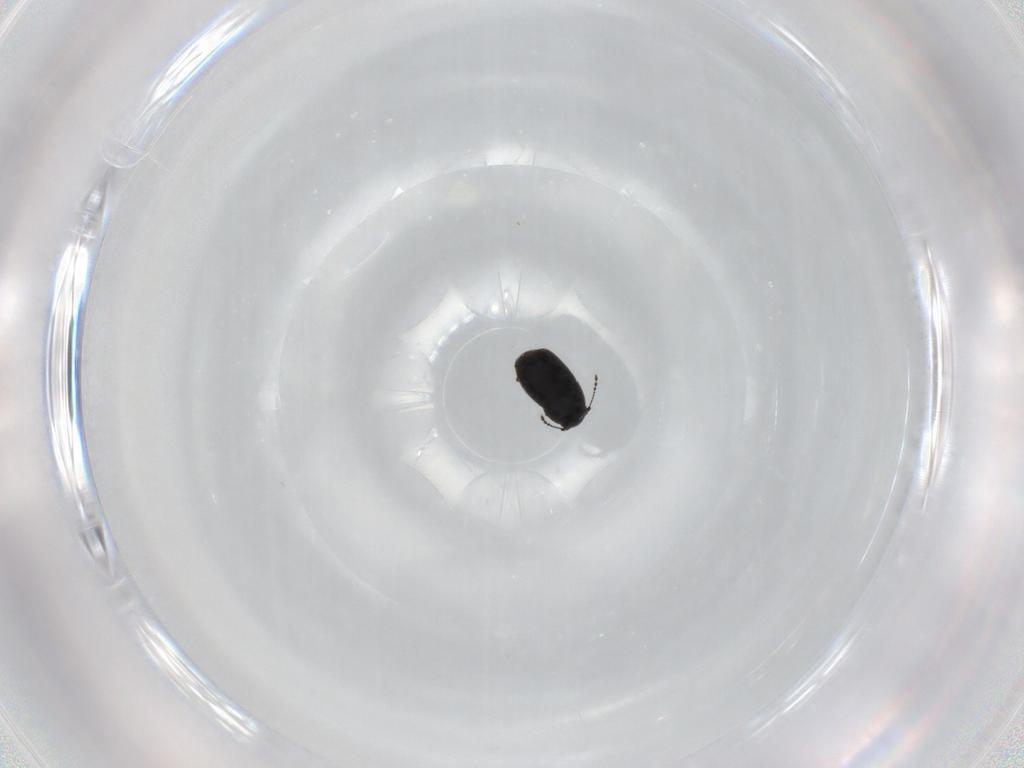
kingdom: Animalia
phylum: Arthropoda
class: Insecta
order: Coleoptera
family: Ptiliidae
